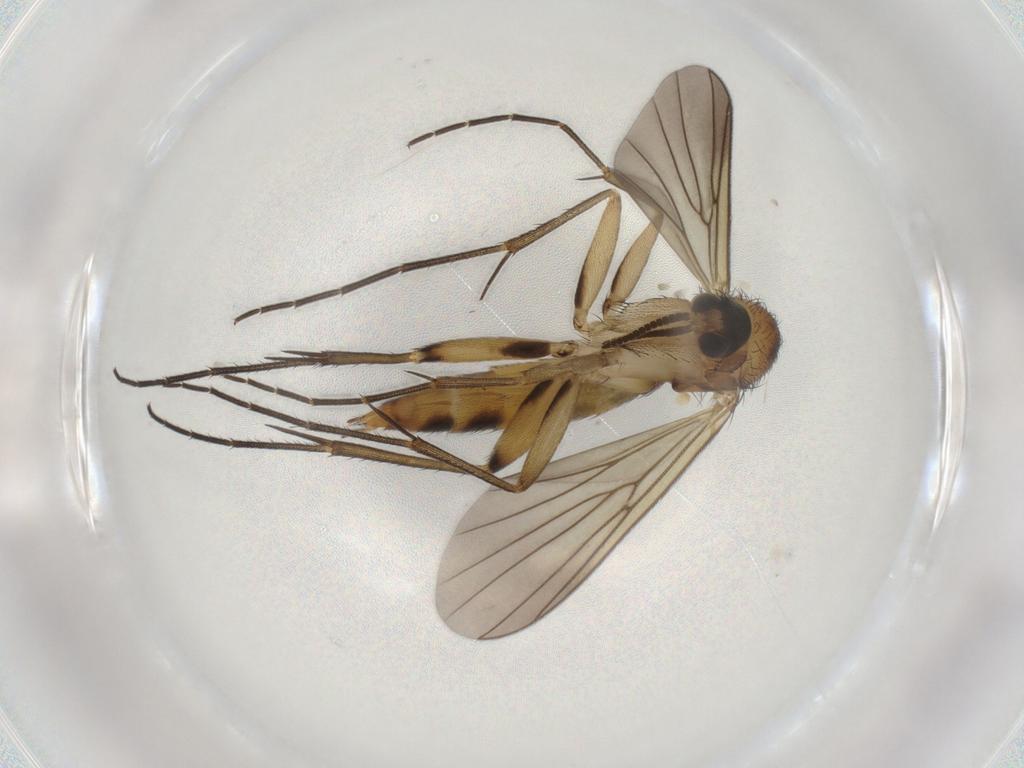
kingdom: Animalia
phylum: Arthropoda
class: Insecta
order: Diptera
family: Mycetophilidae
